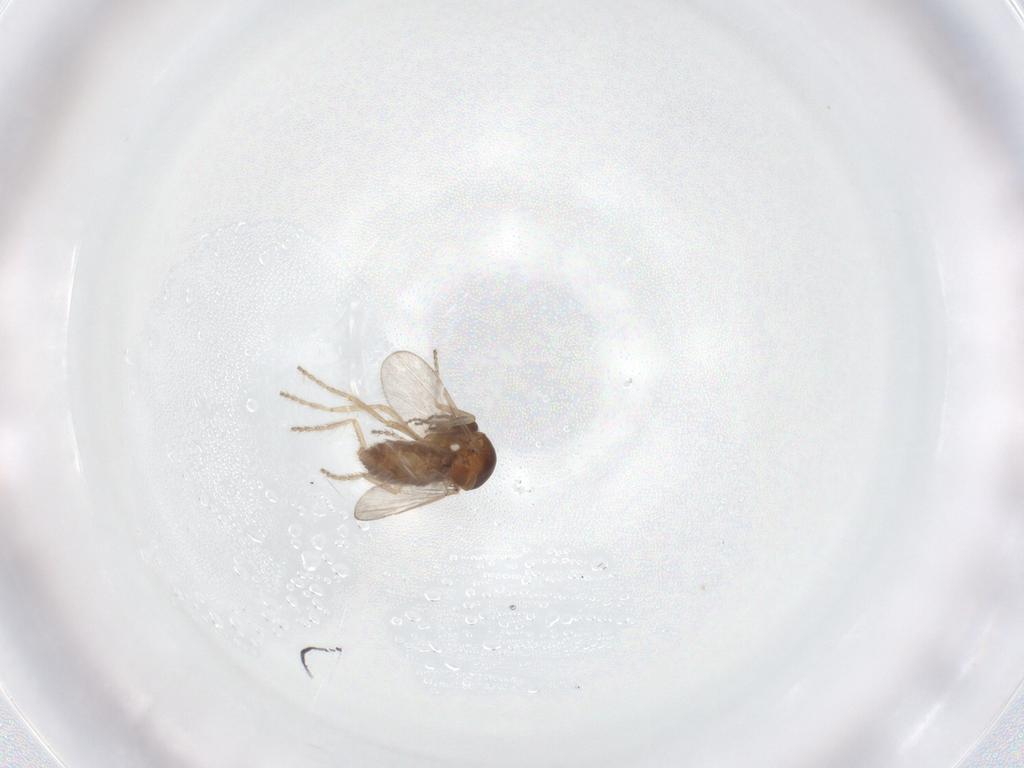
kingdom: Animalia
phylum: Arthropoda
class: Insecta
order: Diptera
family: Ceratopogonidae
